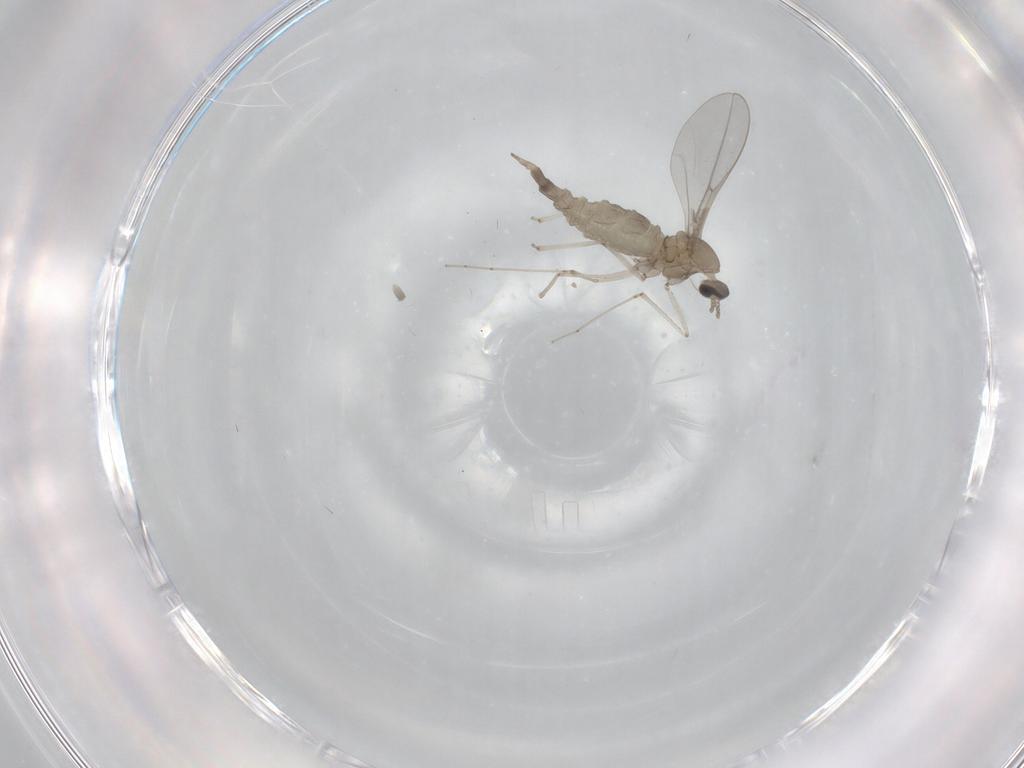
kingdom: Animalia
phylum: Arthropoda
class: Insecta
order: Diptera
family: Cecidomyiidae
